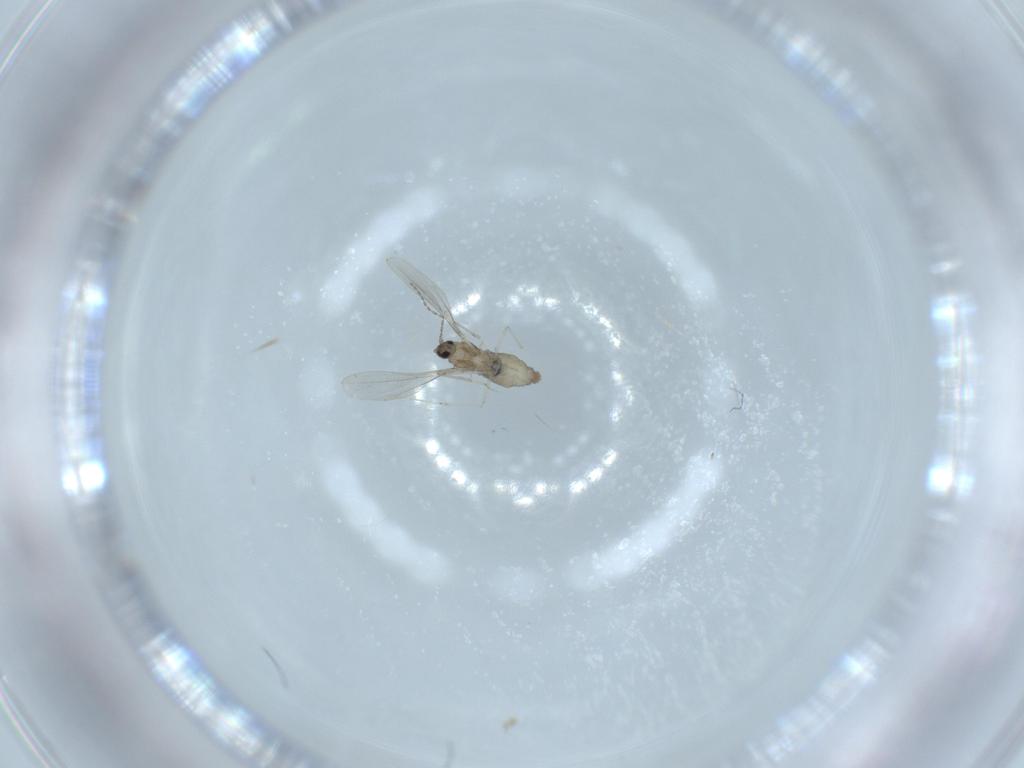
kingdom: Animalia
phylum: Arthropoda
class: Insecta
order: Diptera
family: Cecidomyiidae
